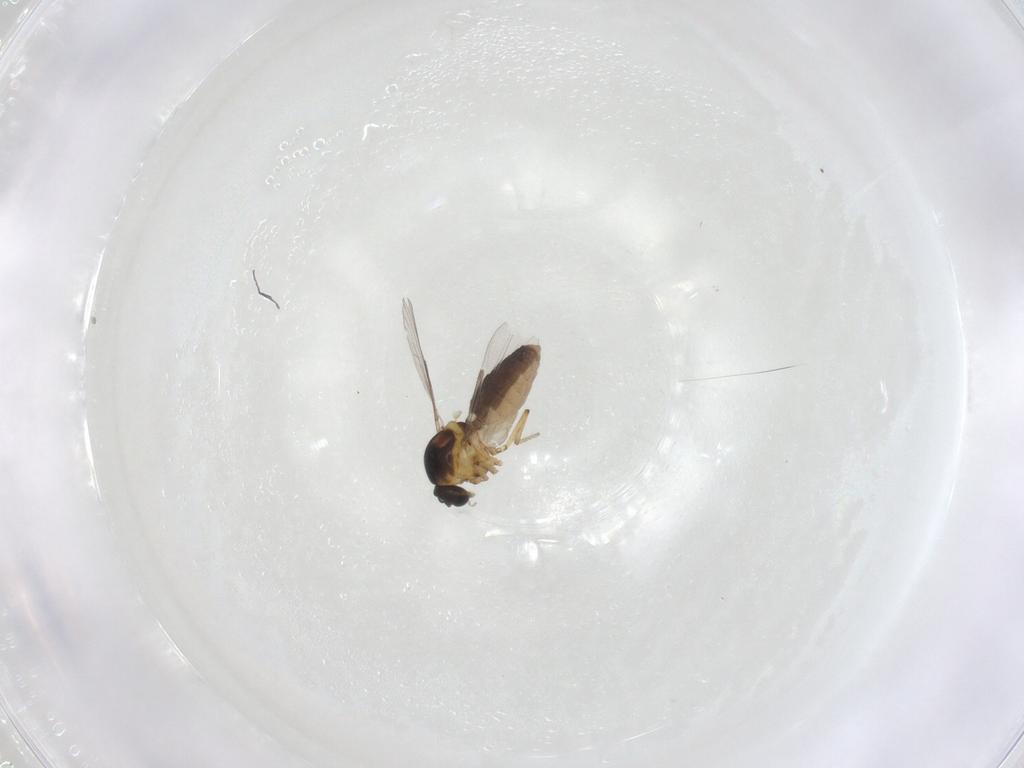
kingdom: Animalia
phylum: Arthropoda
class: Insecta
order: Diptera
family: Ceratopogonidae
